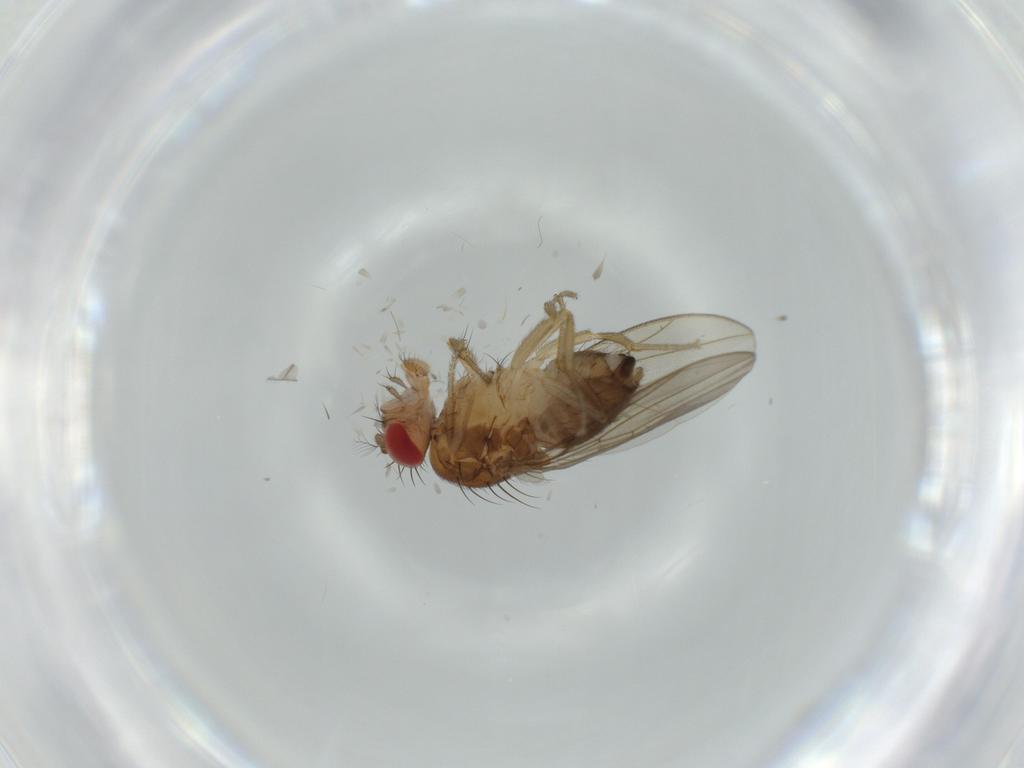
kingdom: Animalia
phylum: Arthropoda
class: Insecta
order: Diptera
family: Drosophilidae
